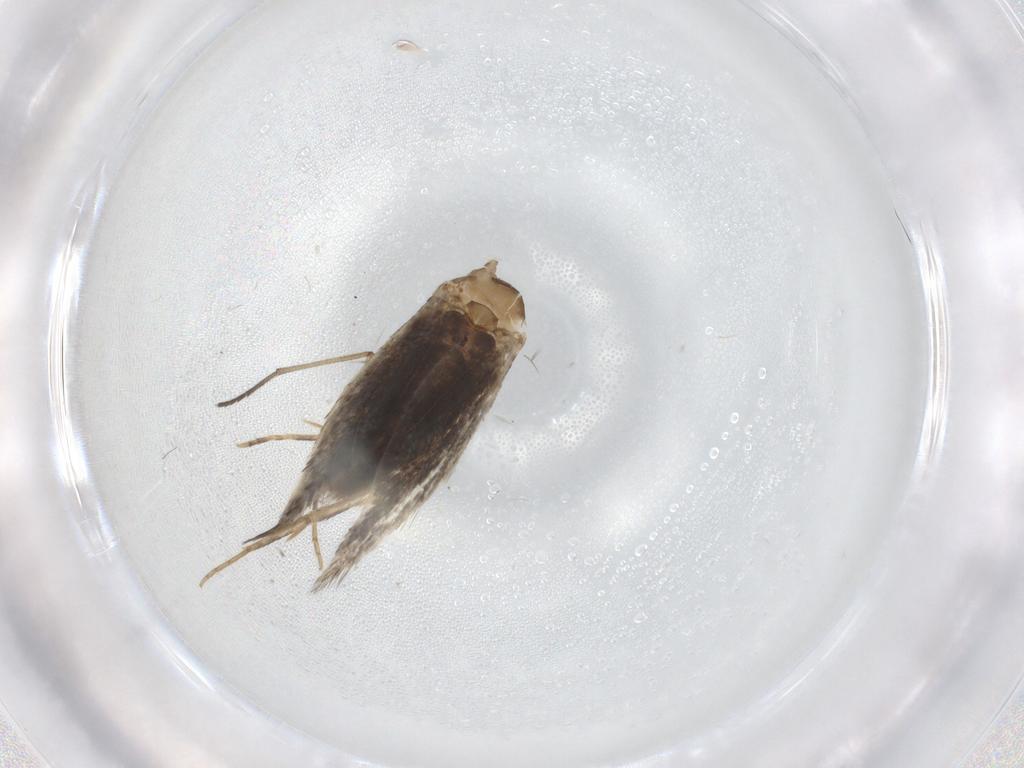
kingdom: Animalia
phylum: Arthropoda
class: Insecta
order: Lepidoptera
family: Elachistidae
